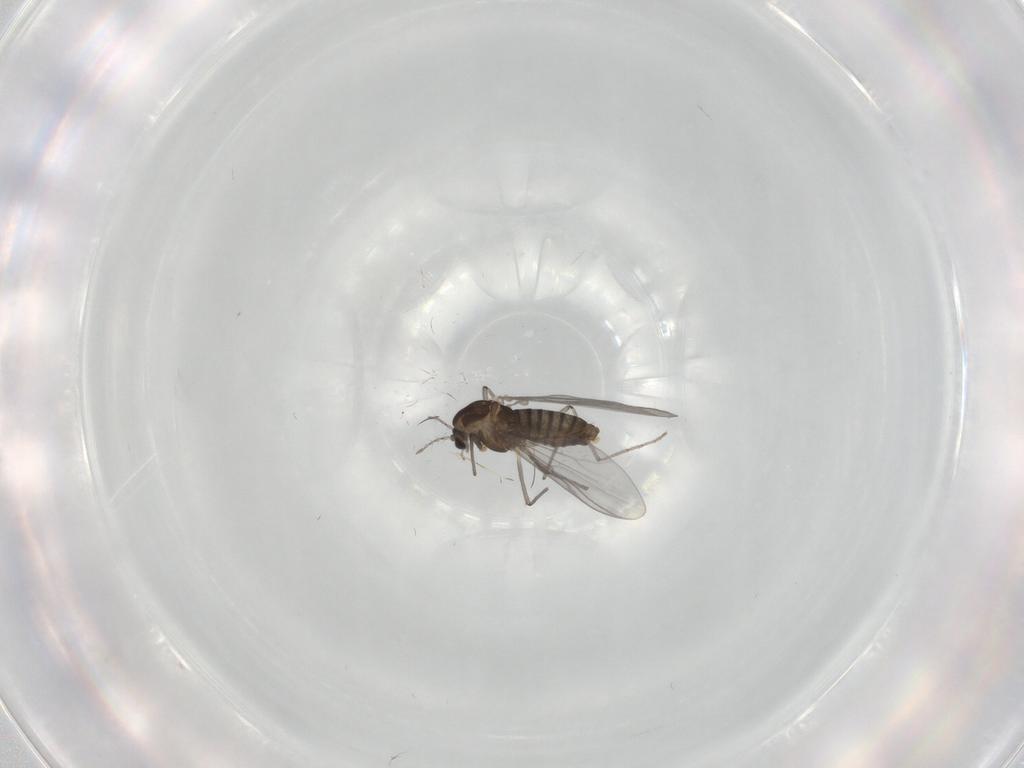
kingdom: Animalia
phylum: Arthropoda
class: Insecta
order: Diptera
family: Chironomidae
